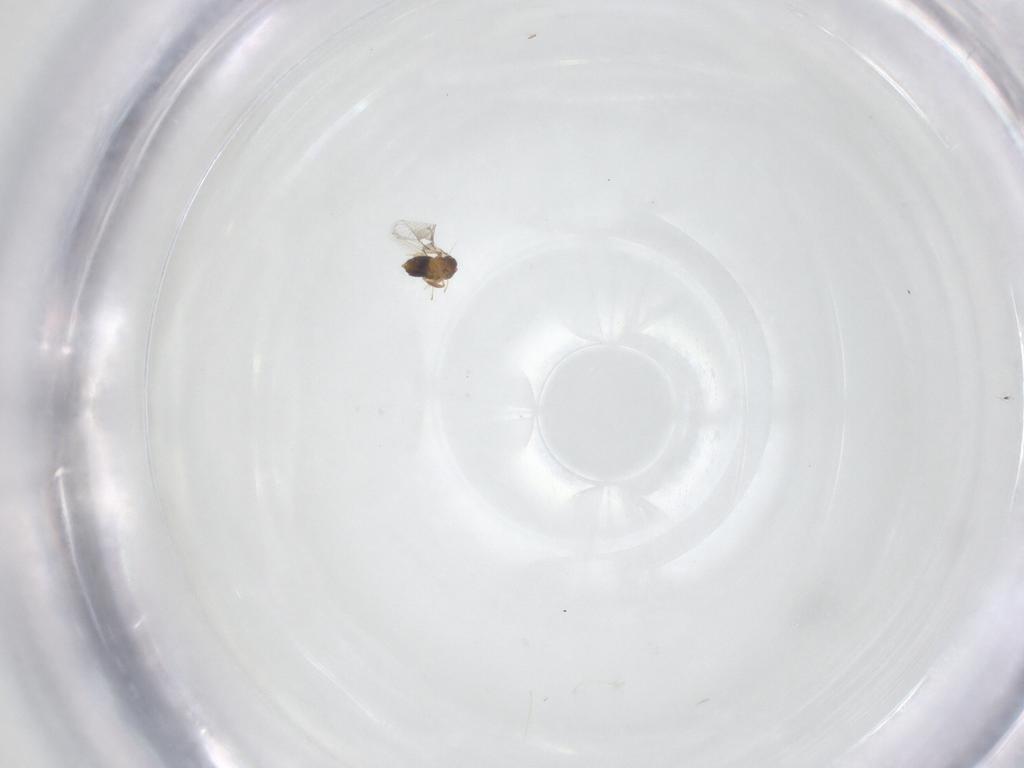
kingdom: Animalia
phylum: Arthropoda
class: Insecta
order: Hymenoptera
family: Trichogrammatidae
